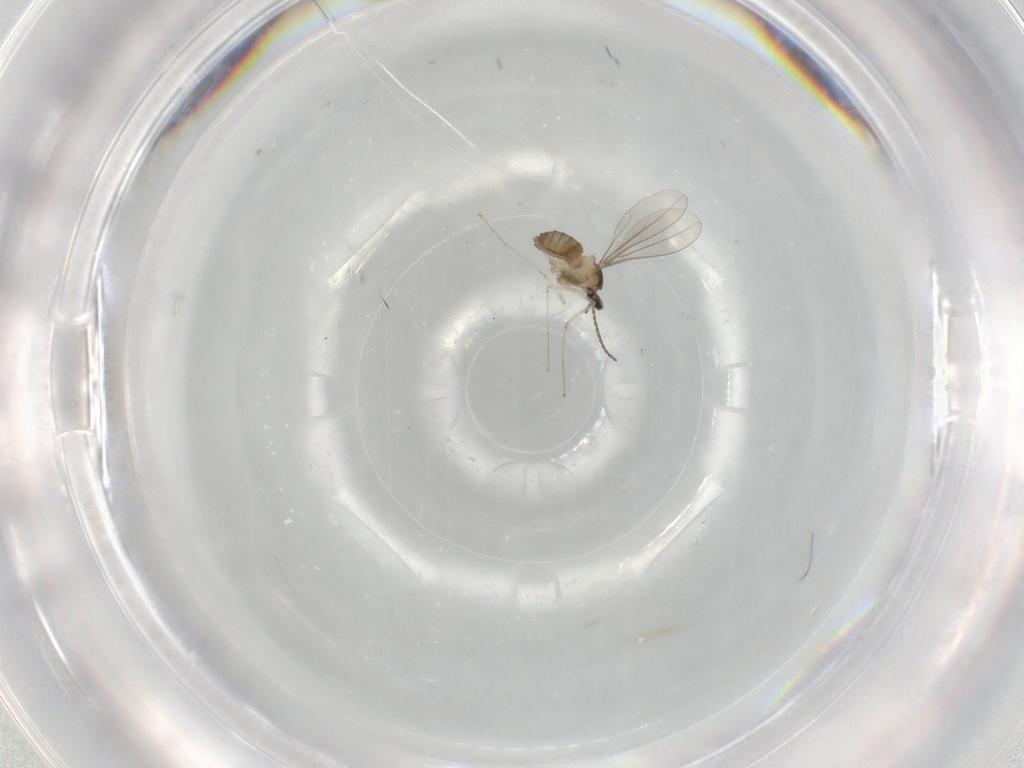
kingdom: Animalia
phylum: Arthropoda
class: Insecta
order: Diptera
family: Cecidomyiidae
